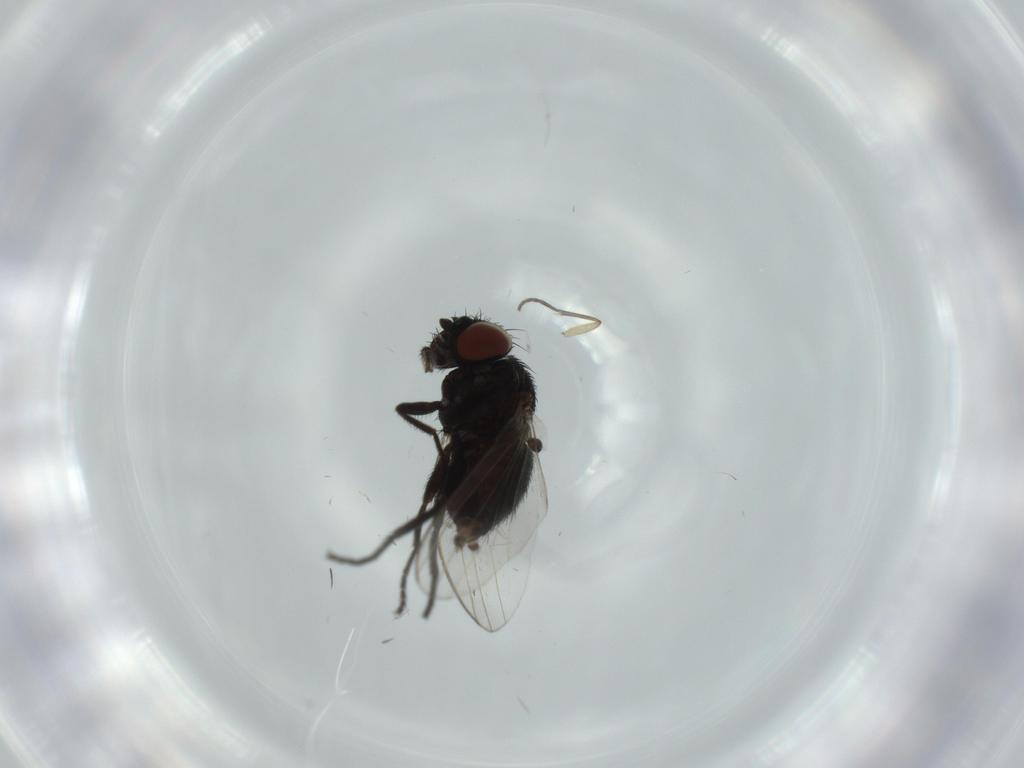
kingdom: Animalia
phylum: Arthropoda
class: Insecta
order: Diptera
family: Sciaridae
